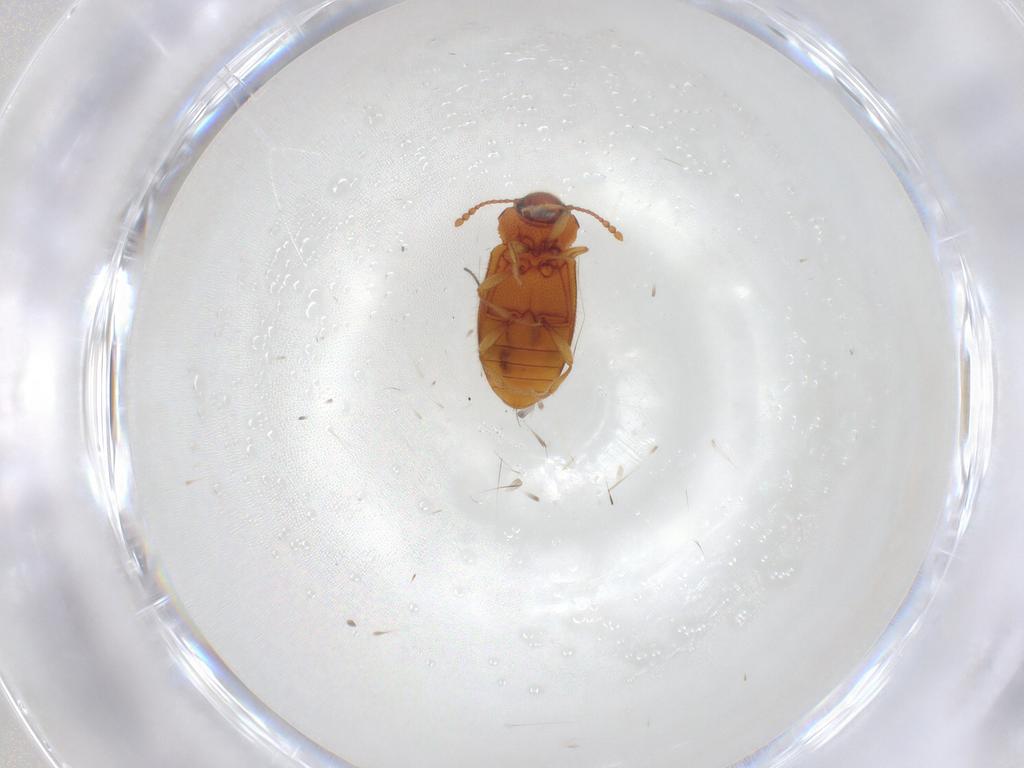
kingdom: Animalia
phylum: Arthropoda
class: Insecta
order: Coleoptera
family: Cryptophagidae
